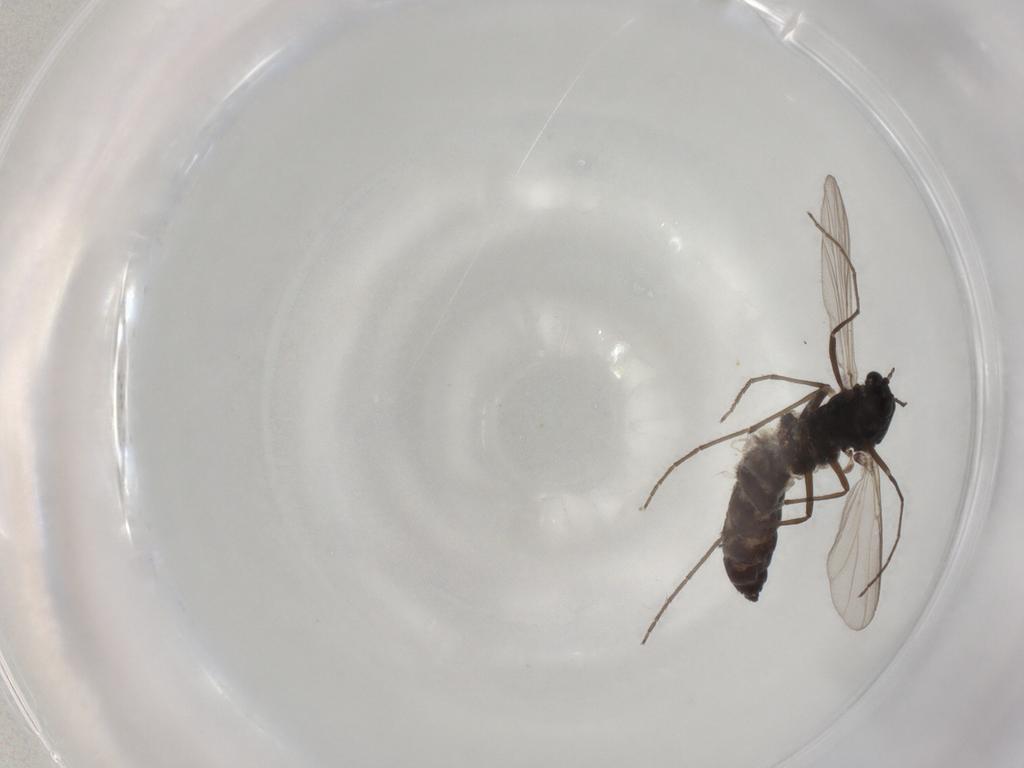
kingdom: Animalia
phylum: Arthropoda
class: Insecta
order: Diptera
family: Chironomidae
